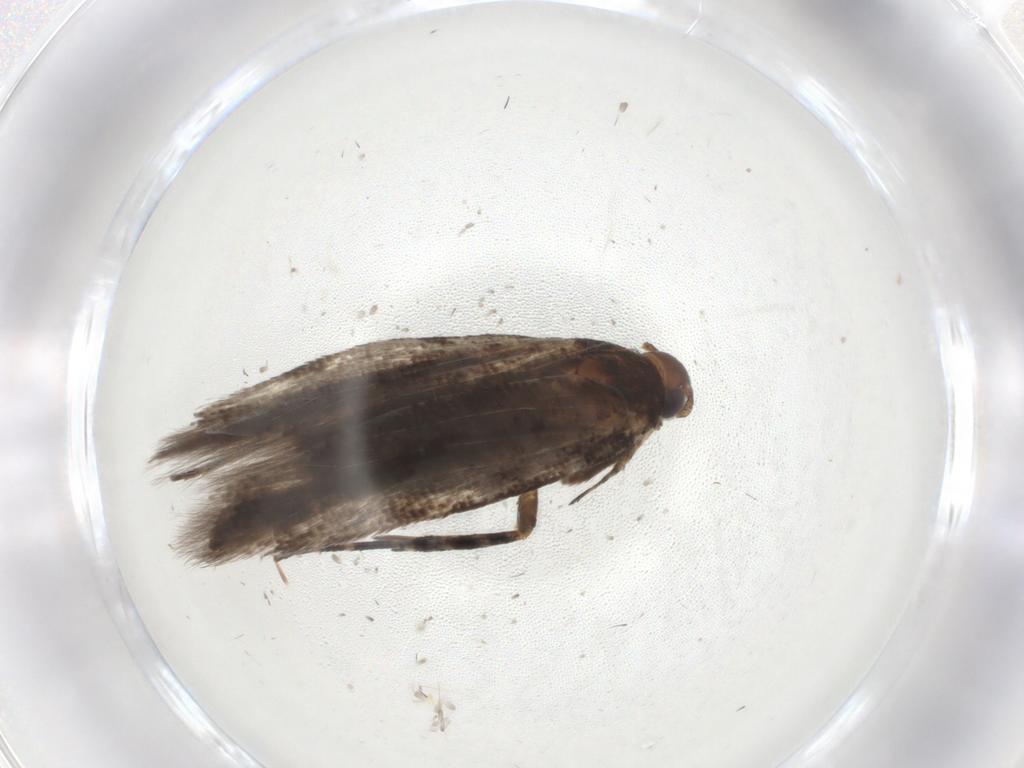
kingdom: Animalia
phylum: Arthropoda
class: Insecta
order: Lepidoptera
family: Gelechiidae
